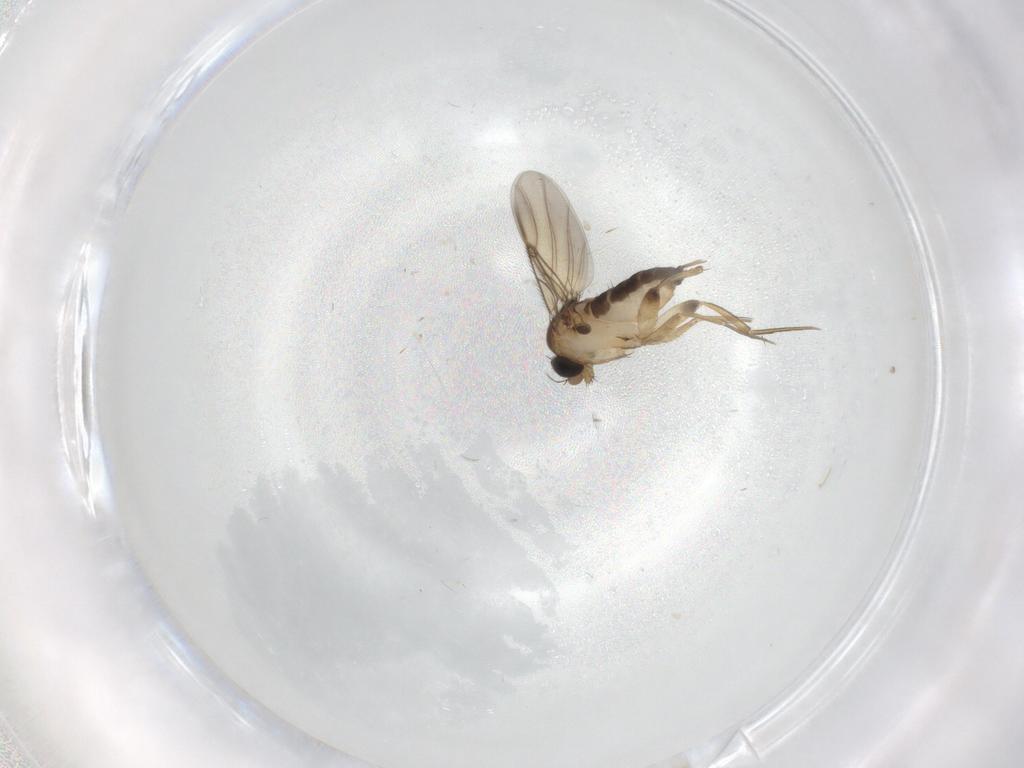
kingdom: Animalia
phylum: Arthropoda
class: Insecta
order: Diptera
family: Phoridae
